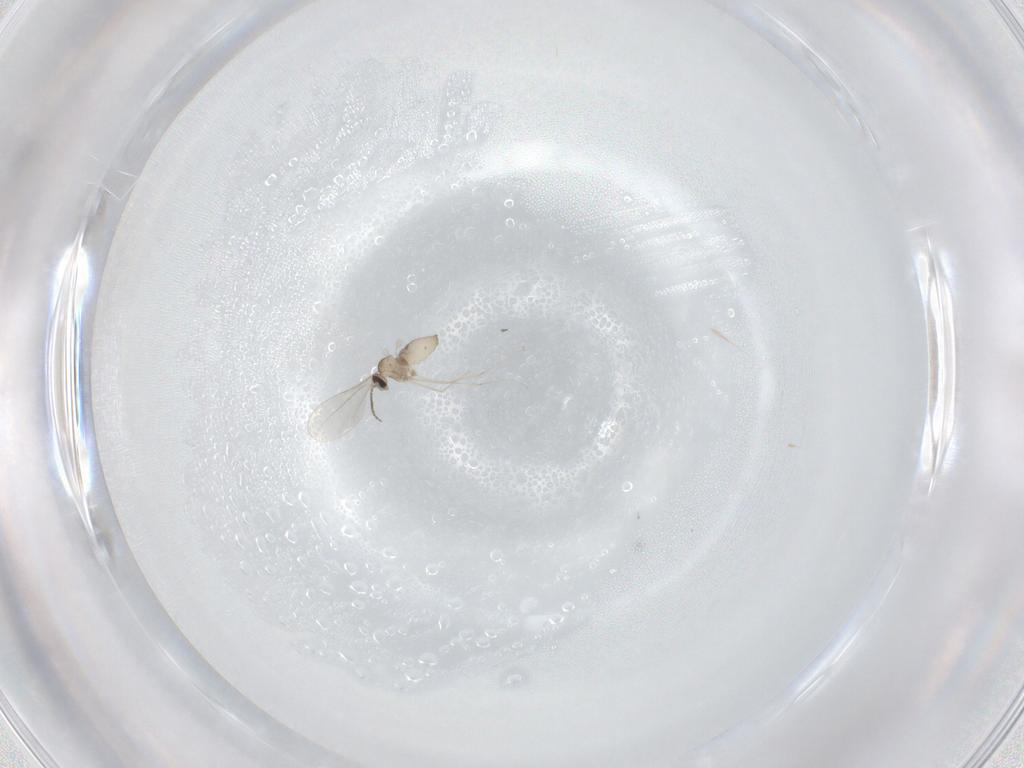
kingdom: Animalia
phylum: Arthropoda
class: Insecta
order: Diptera
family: Cecidomyiidae
